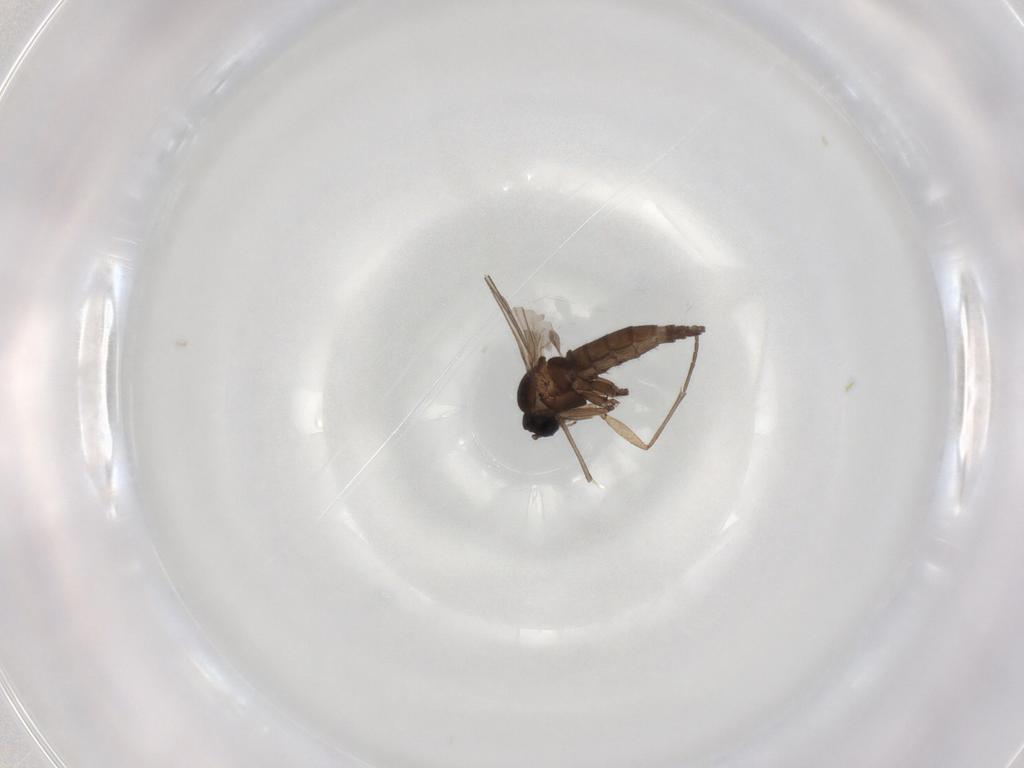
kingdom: Animalia
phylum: Arthropoda
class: Insecta
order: Diptera
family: Sciaridae
